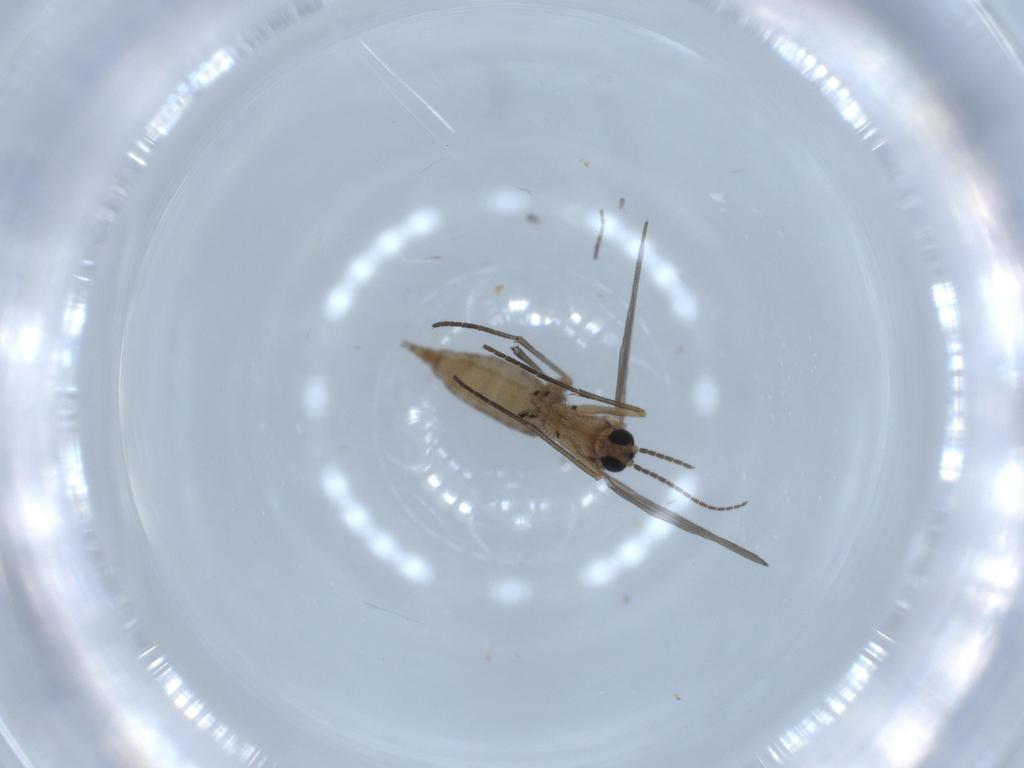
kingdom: Animalia
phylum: Arthropoda
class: Insecta
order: Diptera
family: Sciaridae
